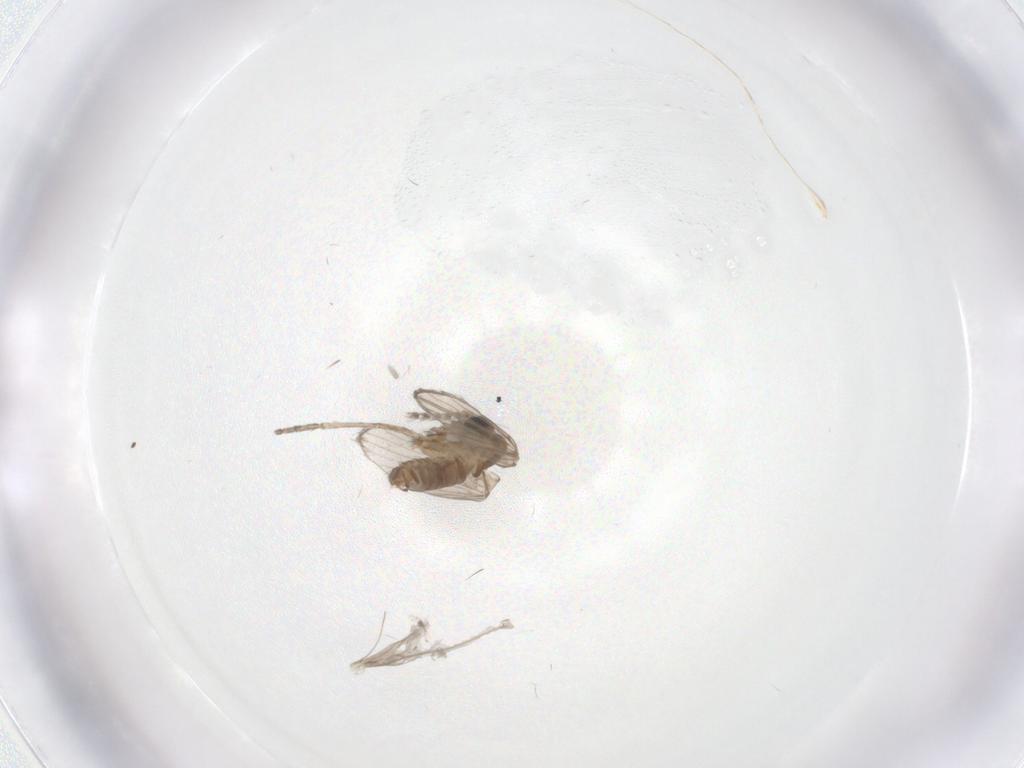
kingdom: Animalia
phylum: Arthropoda
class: Insecta
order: Diptera
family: Psychodidae
